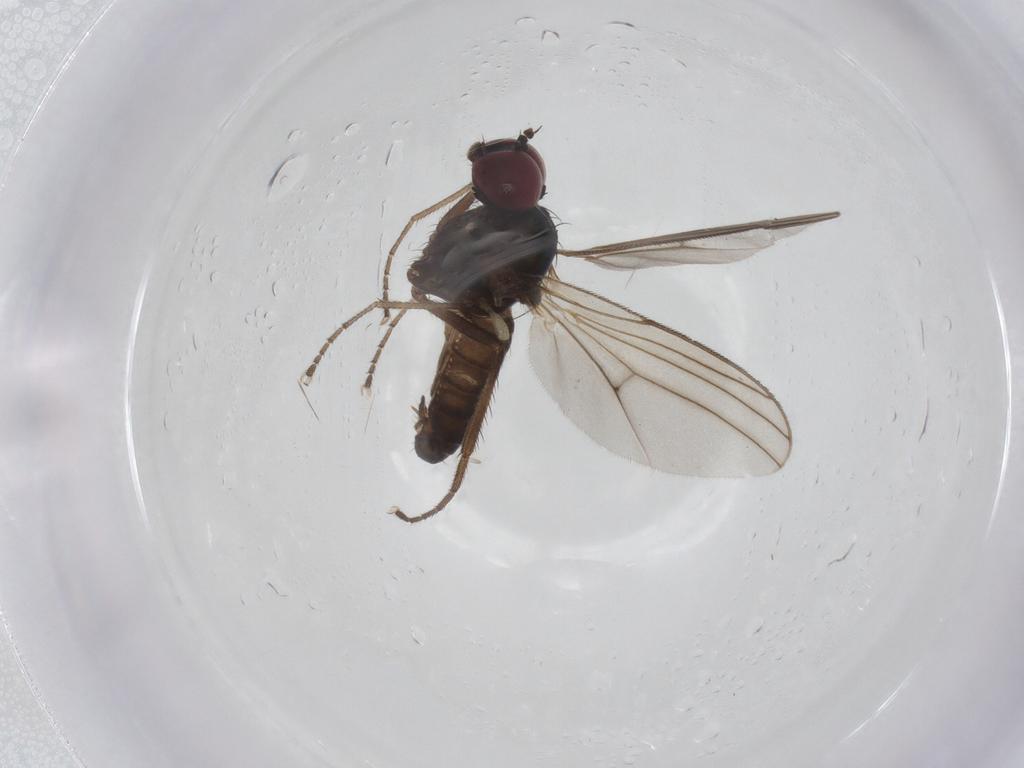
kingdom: Animalia
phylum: Arthropoda
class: Insecta
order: Diptera
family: Dolichopodidae
